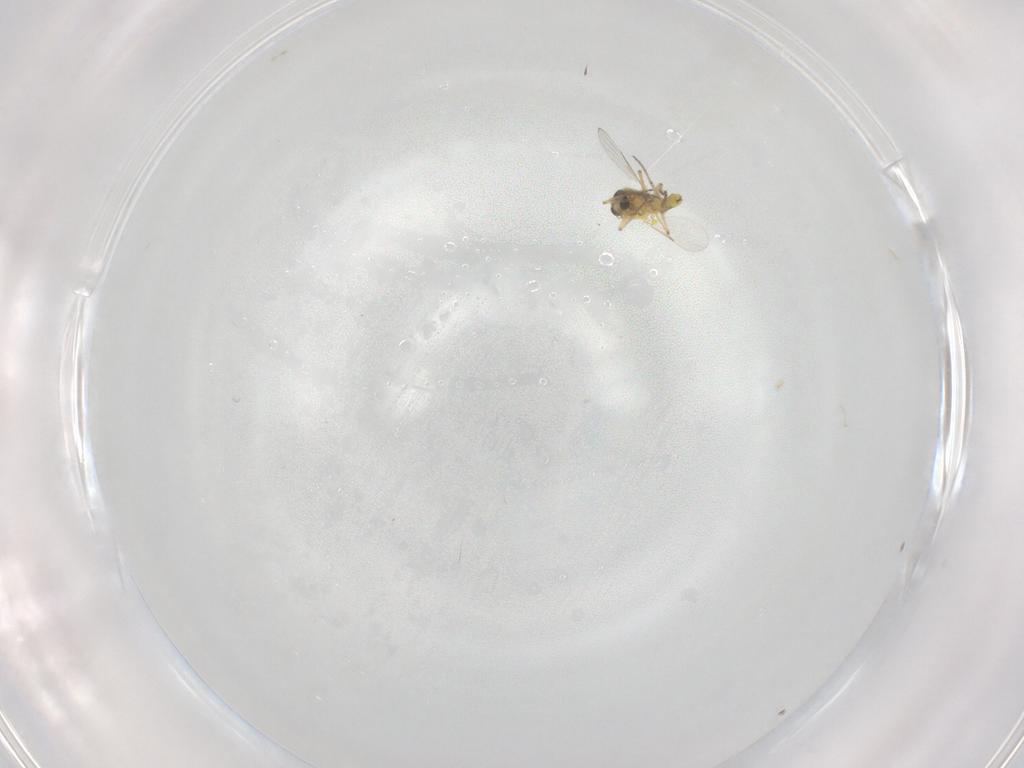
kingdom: Animalia
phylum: Arthropoda
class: Insecta
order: Diptera
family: Ceratopogonidae
